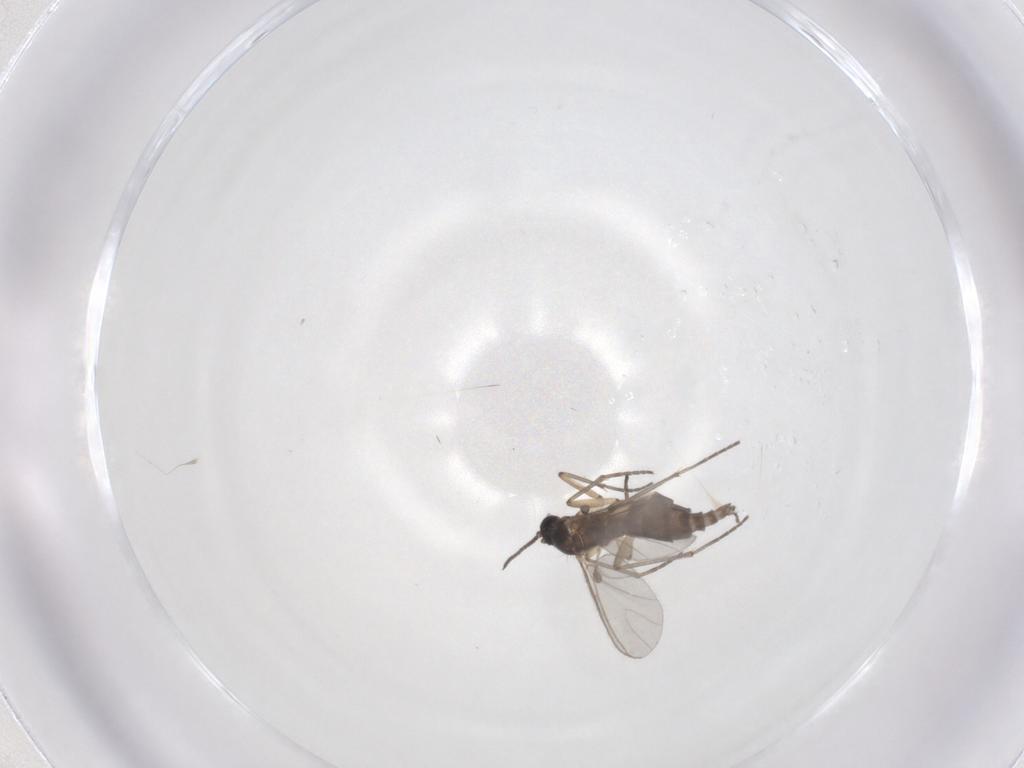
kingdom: Animalia
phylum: Arthropoda
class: Insecta
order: Diptera
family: Sciaridae
